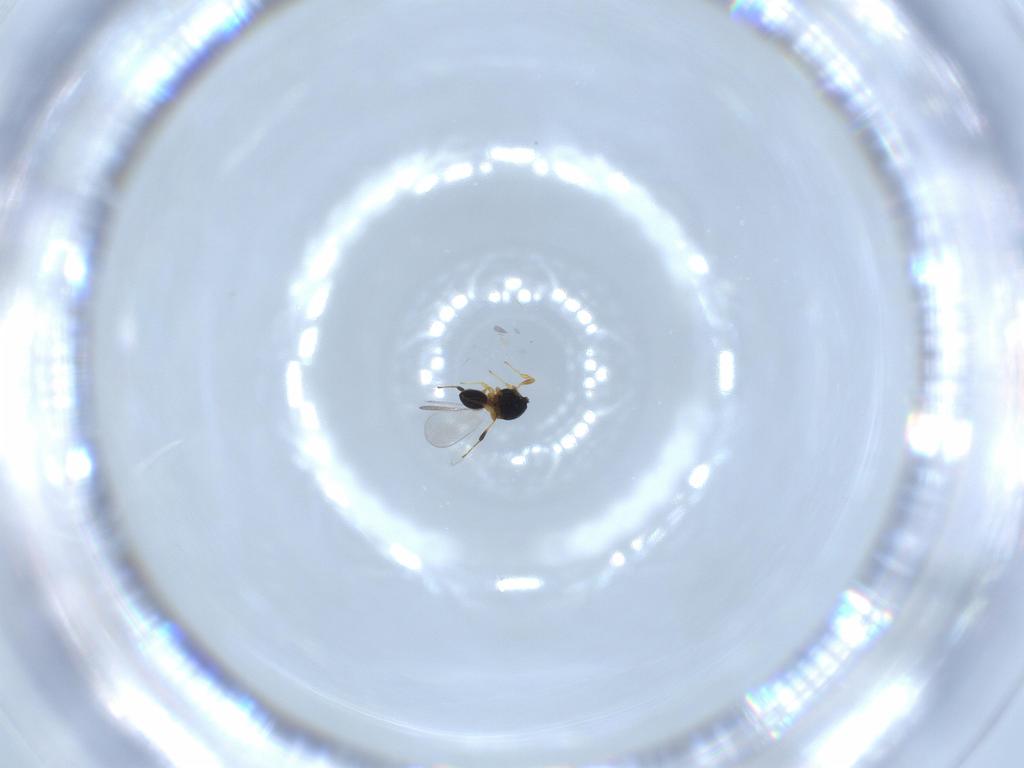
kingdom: Animalia
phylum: Arthropoda
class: Insecta
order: Hymenoptera
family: Platygastridae
